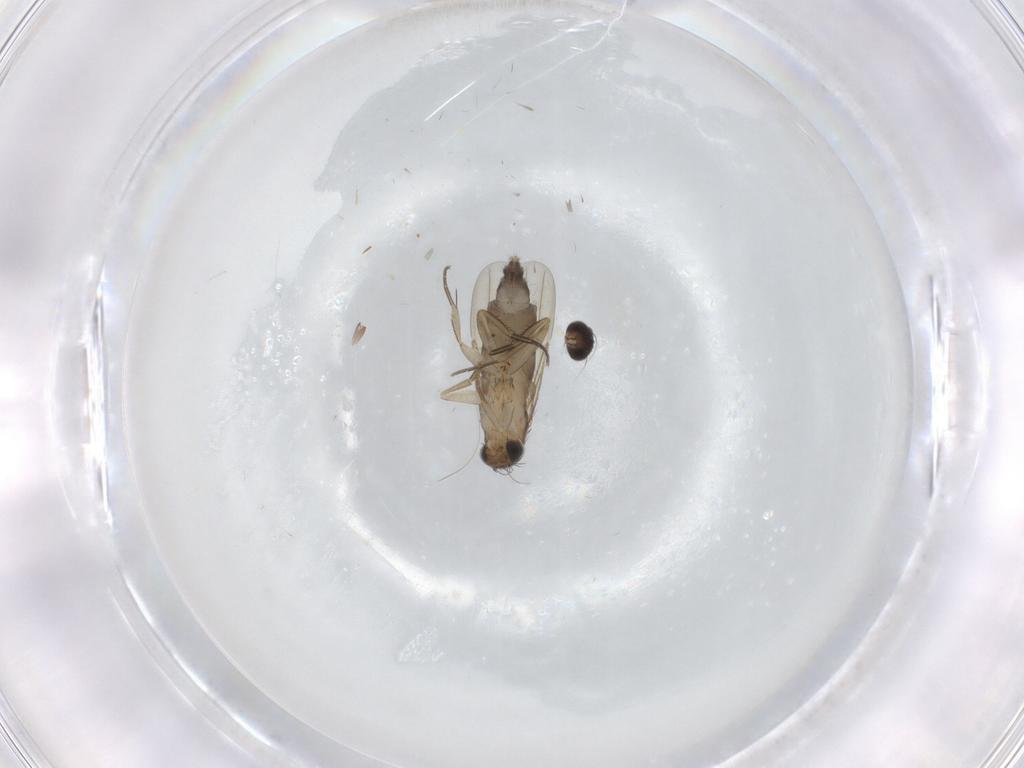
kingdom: Animalia
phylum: Arthropoda
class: Insecta
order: Diptera
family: Phoridae
